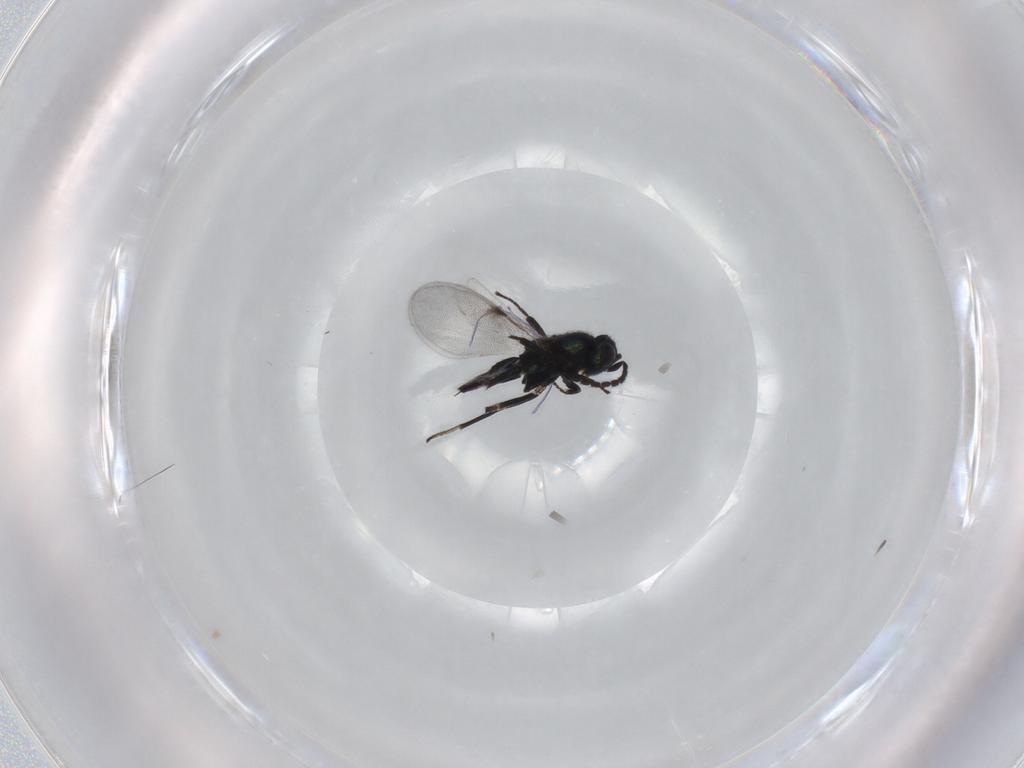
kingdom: Animalia
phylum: Arthropoda
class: Insecta
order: Hymenoptera
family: Encyrtidae
